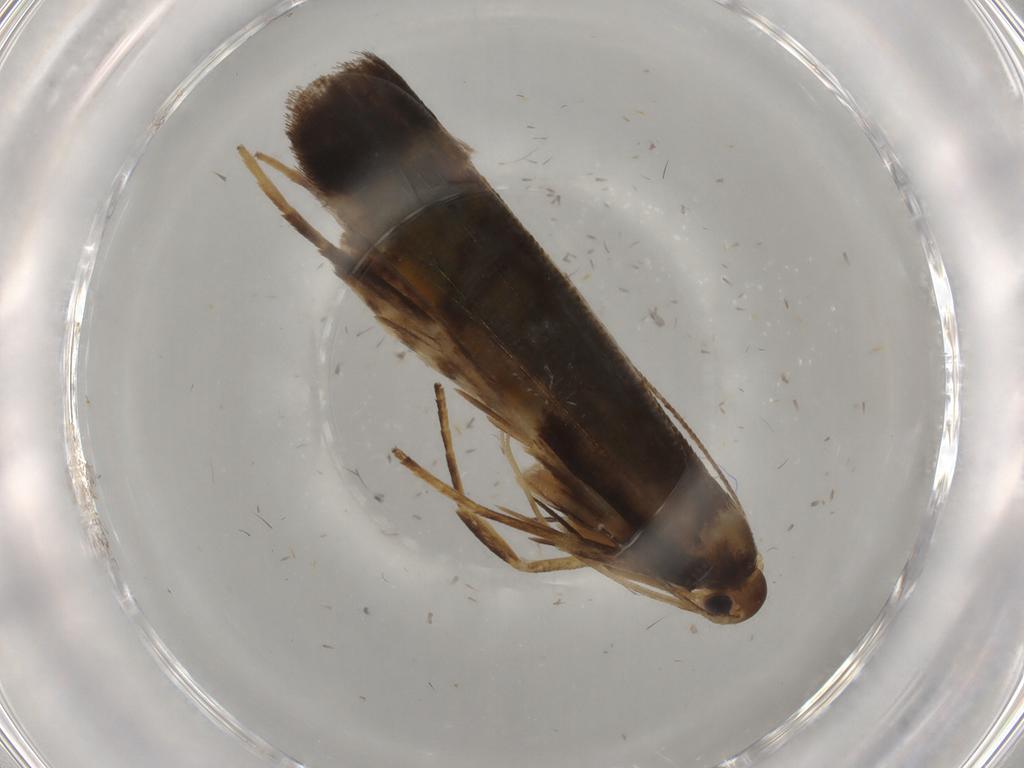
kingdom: Animalia
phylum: Arthropoda
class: Insecta
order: Lepidoptera
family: Gelechiidae
